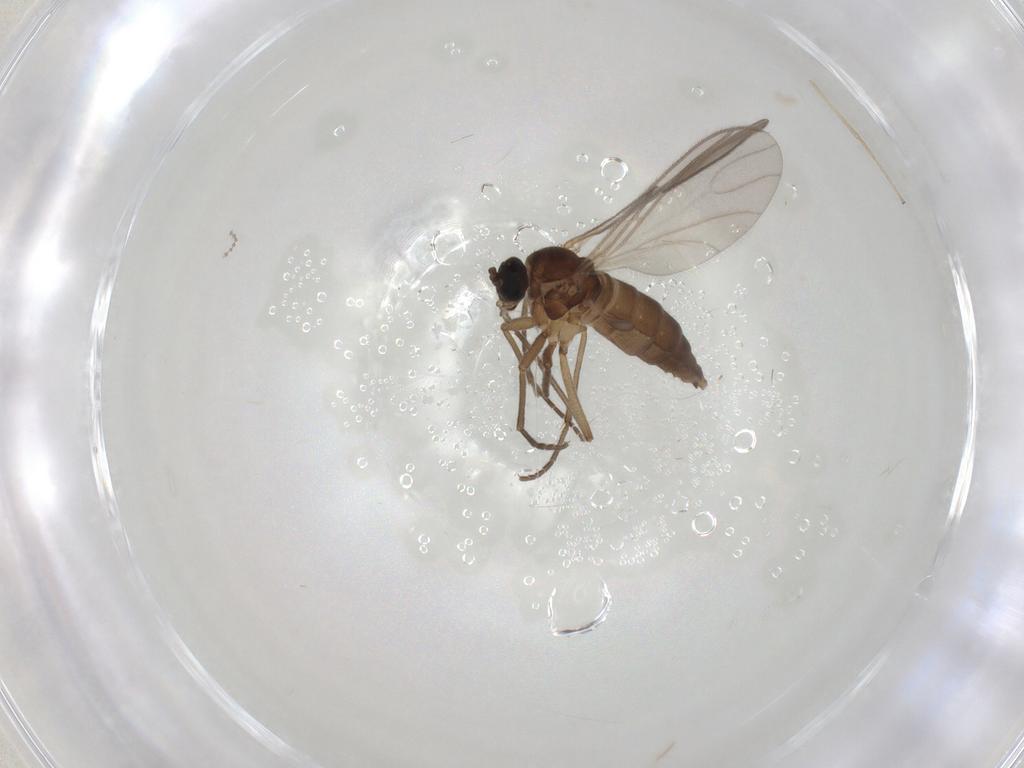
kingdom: Animalia
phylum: Arthropoda
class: Insecta
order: Diptera
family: Sciaridae
